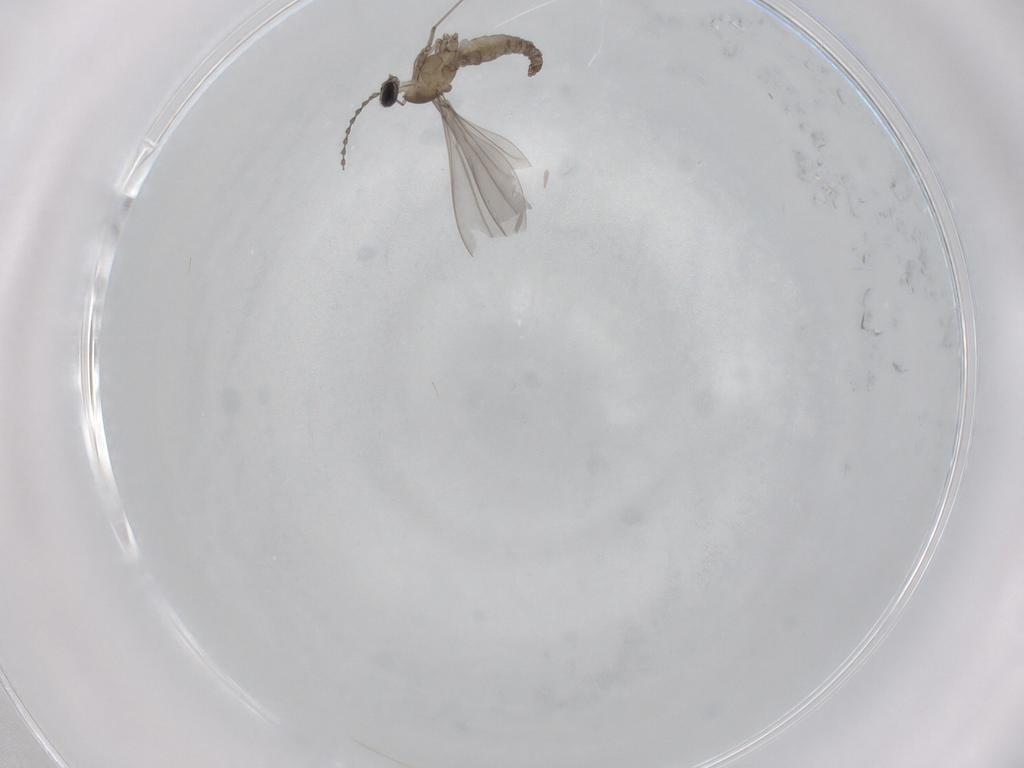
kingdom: Animalia
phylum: Arthropoda
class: Insecta
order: Diptera
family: Cecidomyiidae
